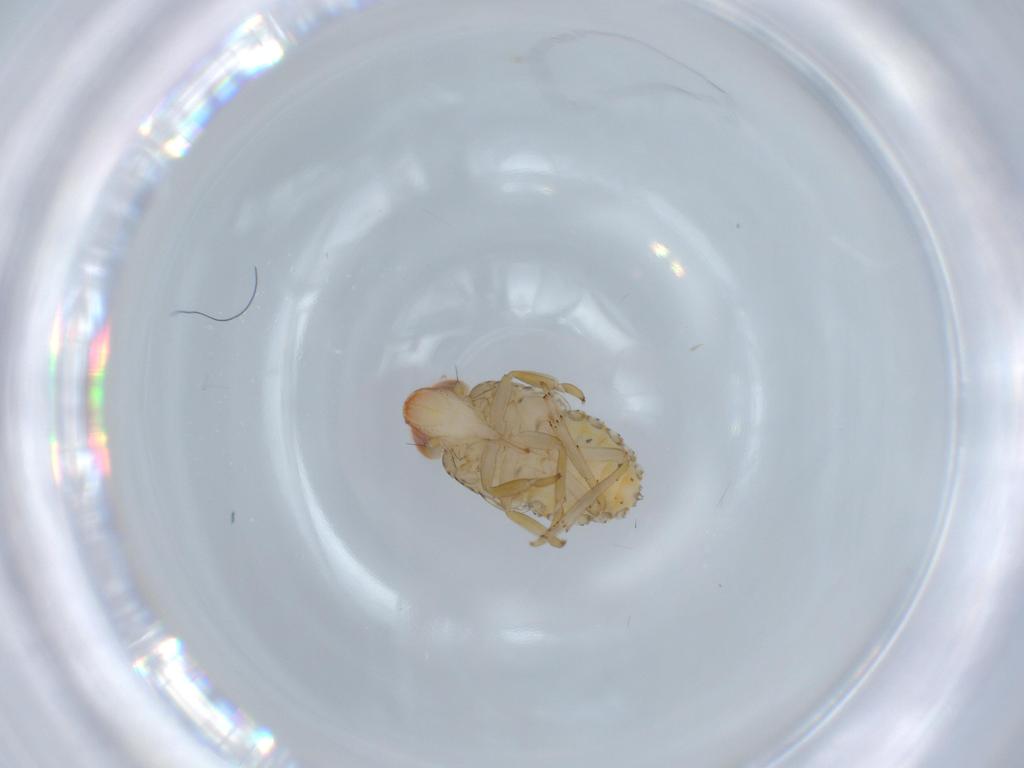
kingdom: Animalia
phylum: Arthropoda
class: Insecta
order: Hemiptera
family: Fulgoroidea_incertae_sedis
